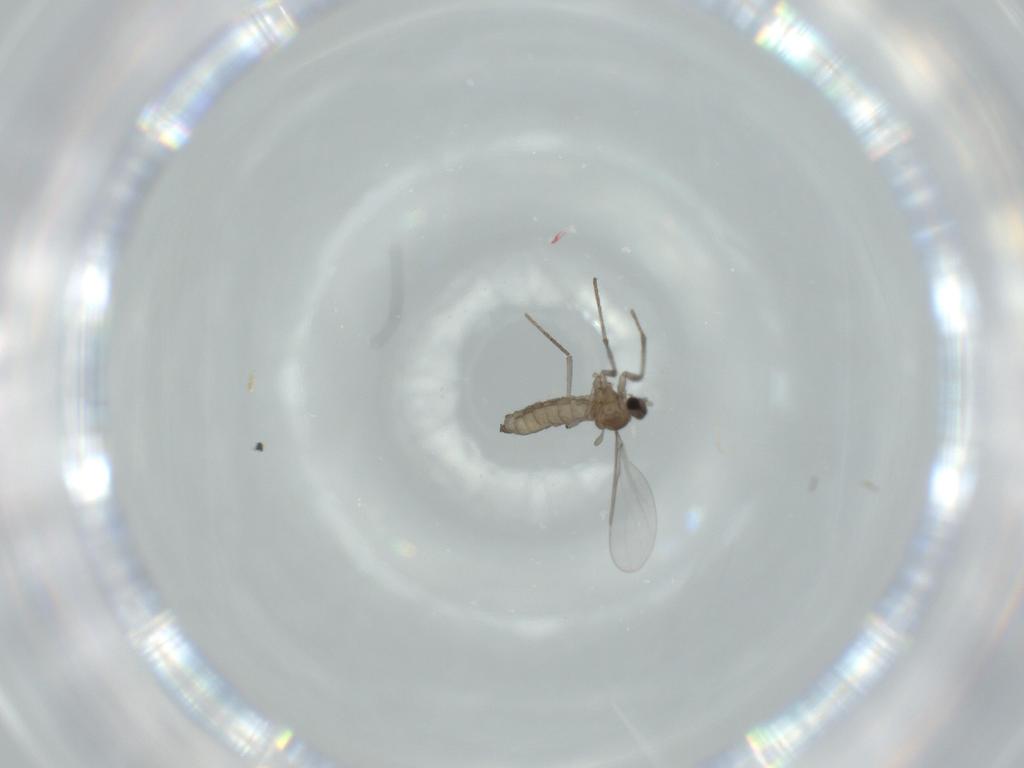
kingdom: Animalia
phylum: Arthropoda
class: Insecta
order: Diptera
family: Cecidomyiidae
